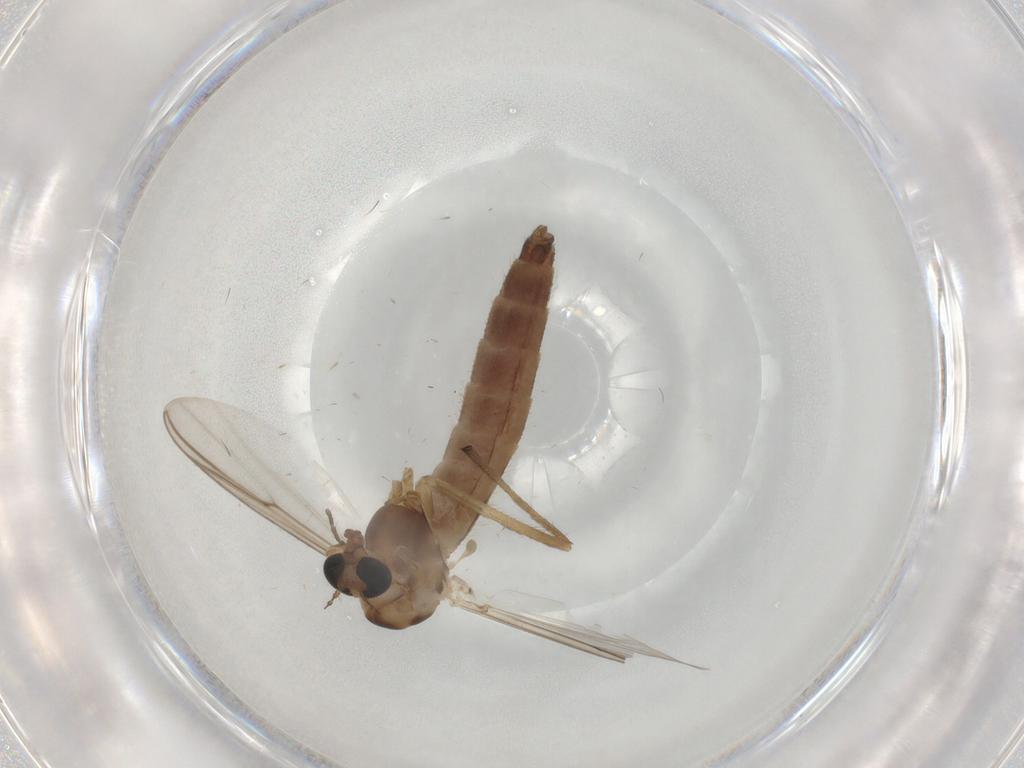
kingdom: Animalia
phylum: Arthropoda
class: Insecta
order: Diptera
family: Chironomidae
